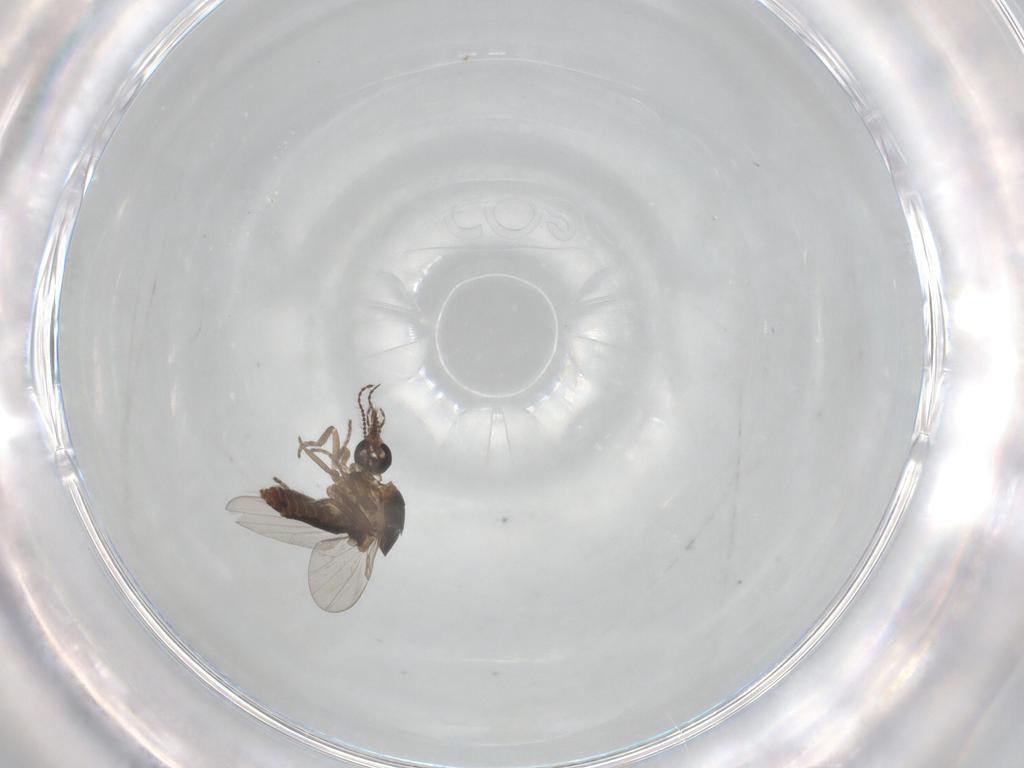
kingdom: Animalia
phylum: Arthropoda
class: Insecta
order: Diptera
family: Ceratopogonidae
